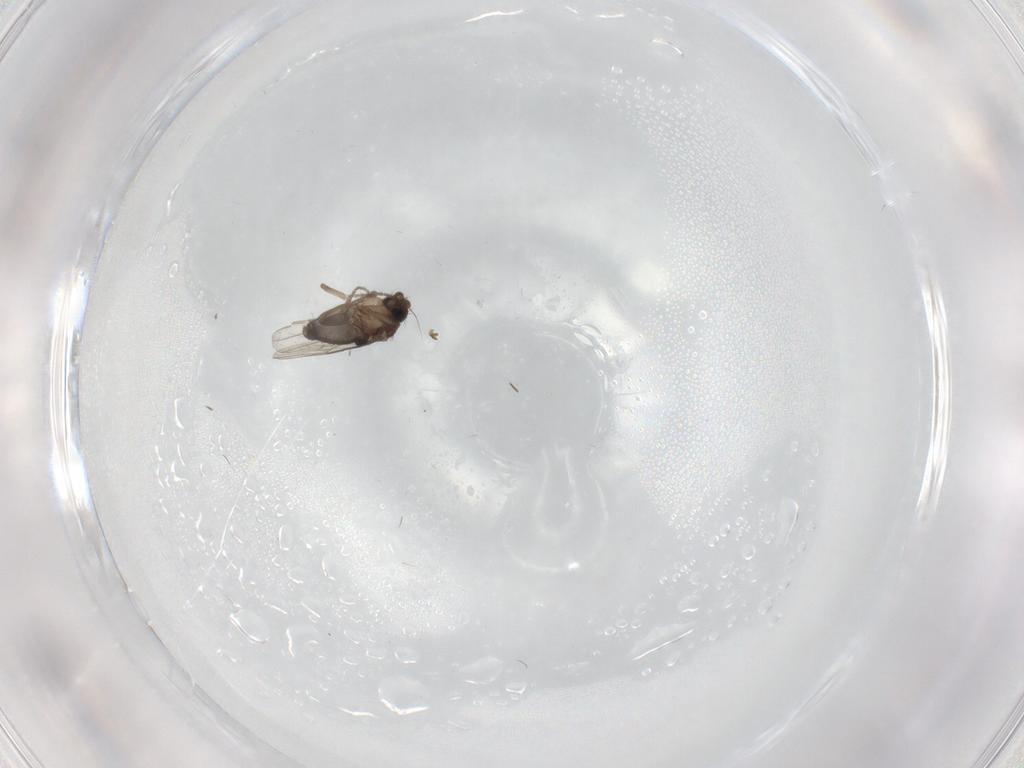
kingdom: Animalia
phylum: Arthropoda
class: Insecta
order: Diptera
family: Phoridae
